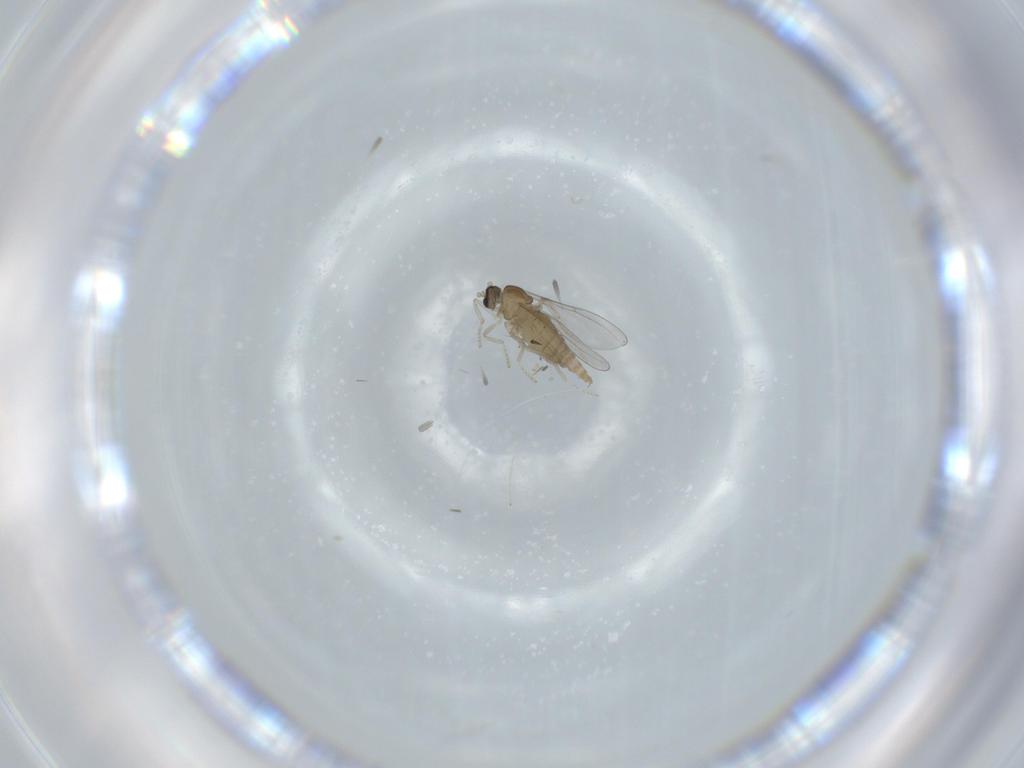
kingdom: Animalia
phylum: Arthropoda
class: Insecta
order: Diptera
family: Cecidomyiidae
